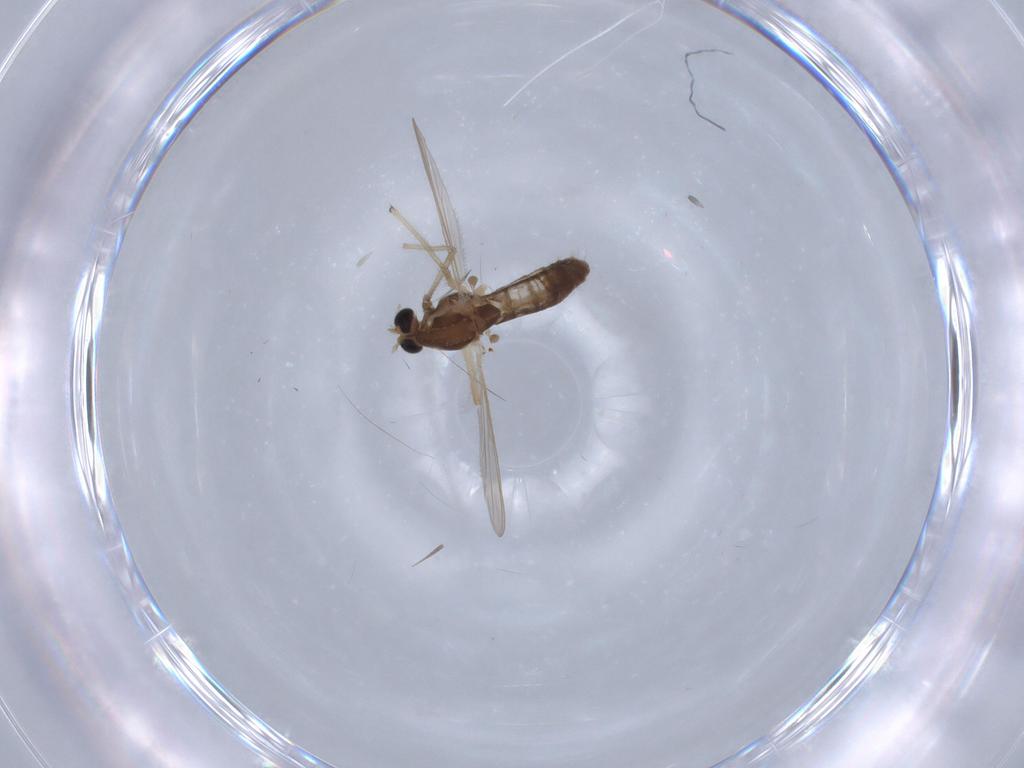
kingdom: Animalia
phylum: Arthropoda
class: Insecta
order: Diptera
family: Chironomidae
